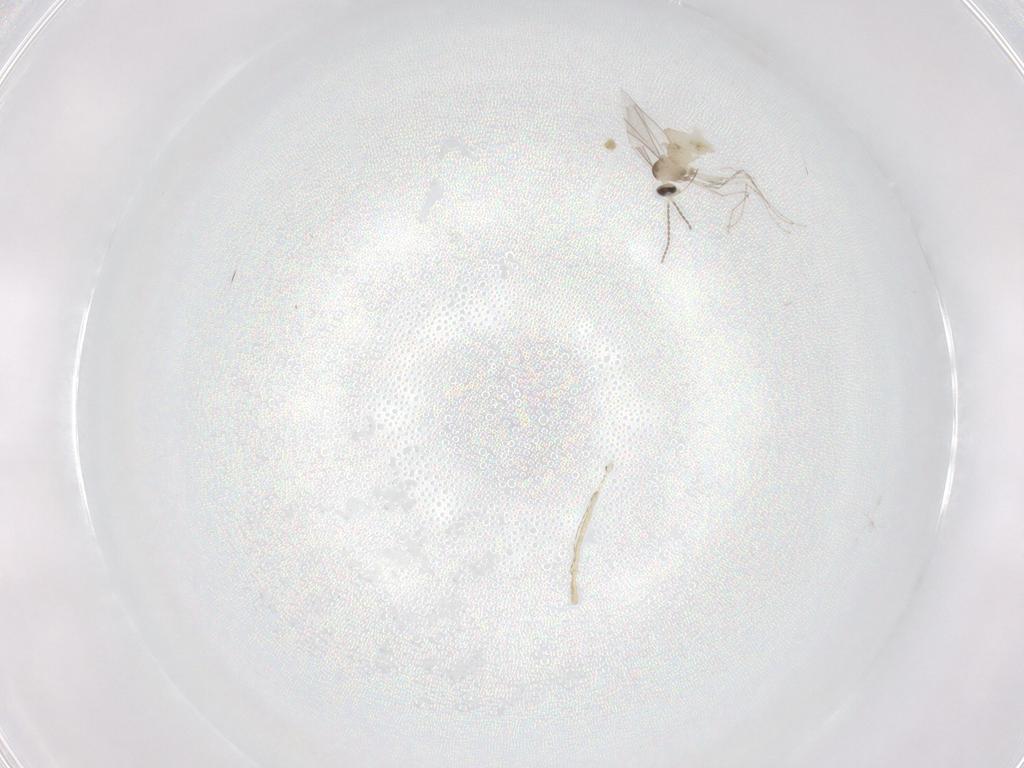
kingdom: Animalia
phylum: Arthropoda
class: Insecta
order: Diptera
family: Cecidomyiidae
